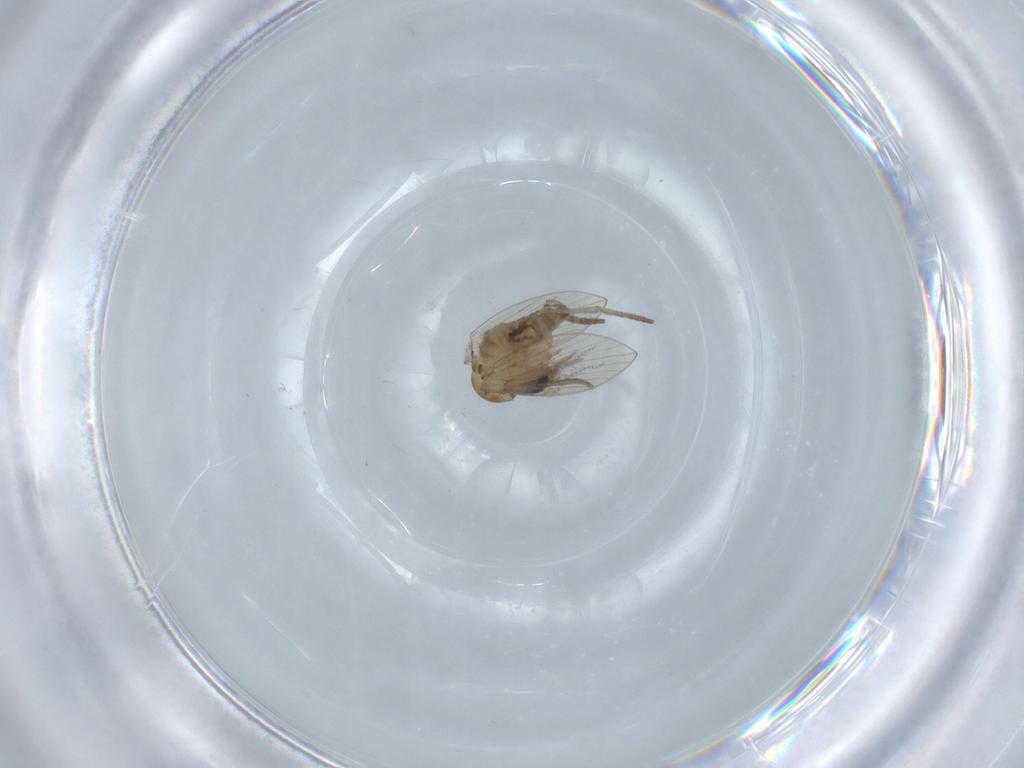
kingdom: Animalia
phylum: Arthropoda
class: Insecta
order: Diptera
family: Psychodidae
